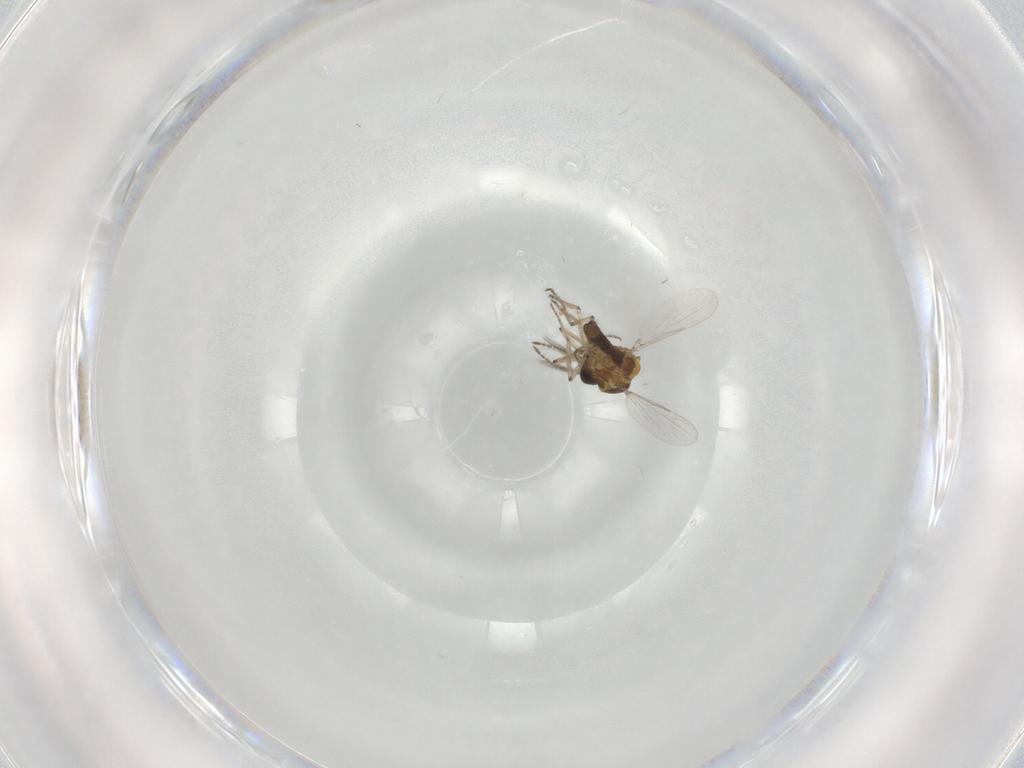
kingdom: Animalia
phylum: Arthropoda
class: Insecta
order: Diptera
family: Ceratopogonidae
